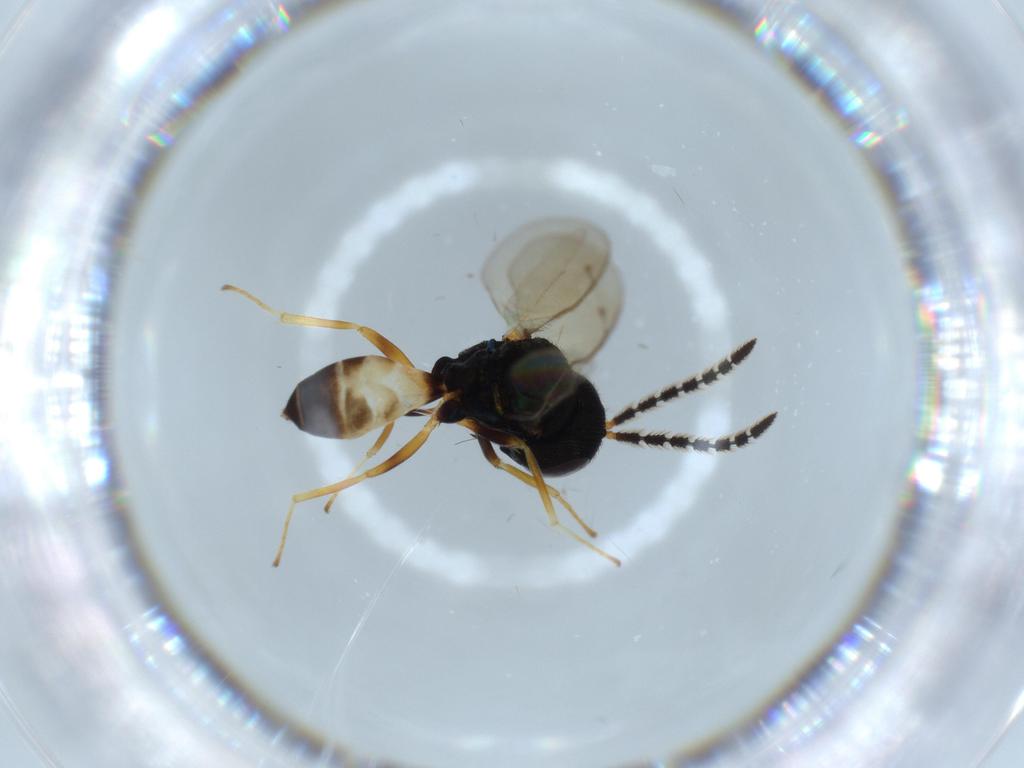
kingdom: Animalia
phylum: Arthropoda
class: Insecta
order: Hymenoptera
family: Pteromalidae
